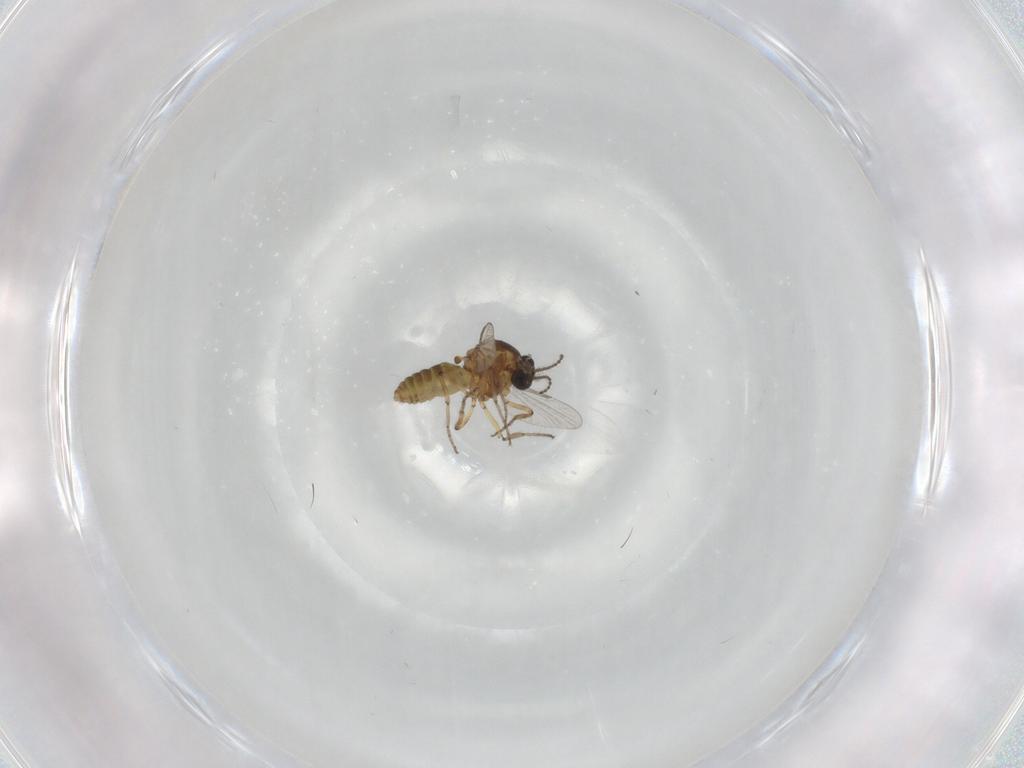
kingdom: Animalia
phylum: Arthropoda
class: Insecta
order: Diptera
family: Ceratopogonidae
